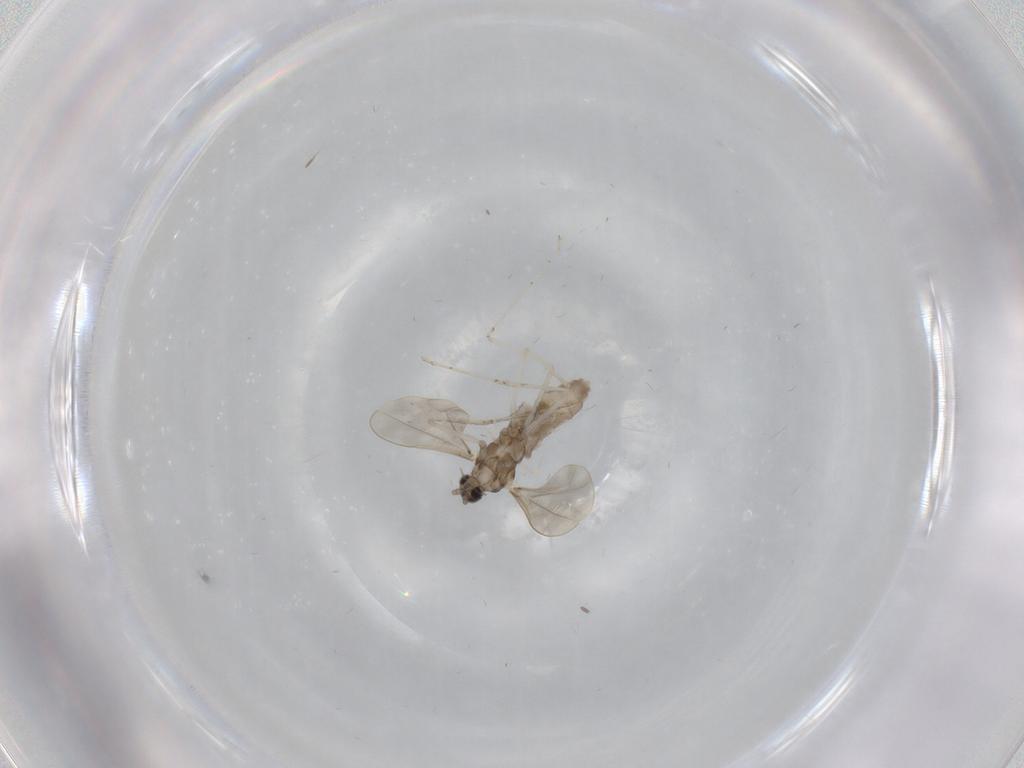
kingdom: Animalia
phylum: Arthropoda
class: Insecta
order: Diptera
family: Cecidomyiidae
